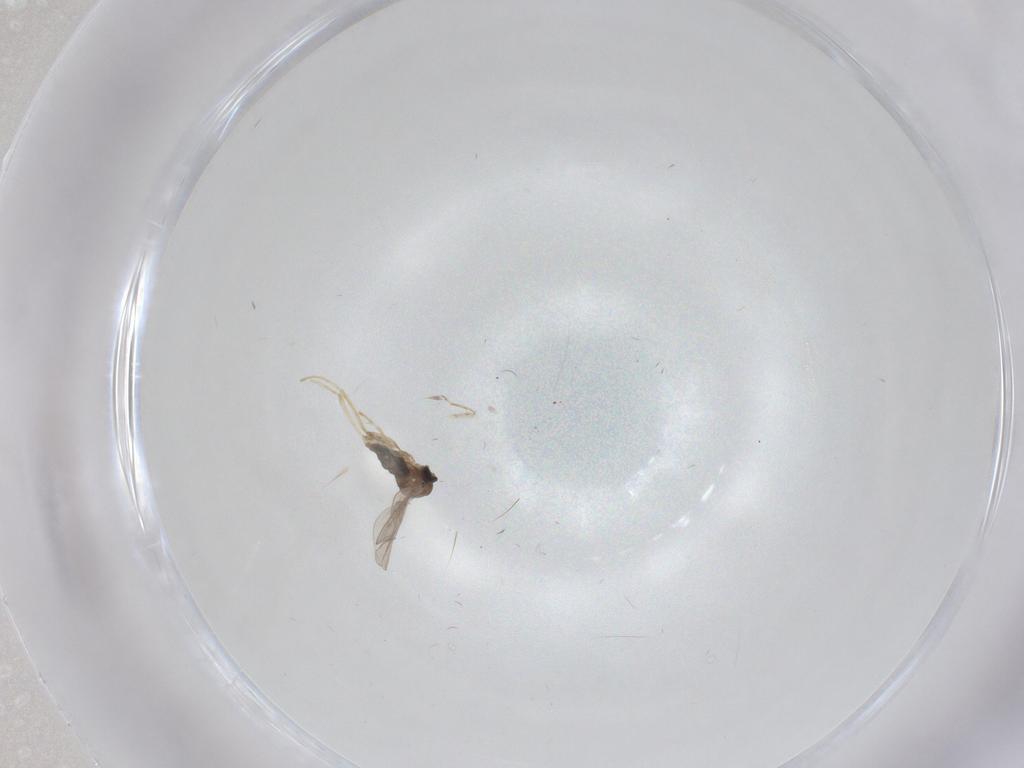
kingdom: Animalia
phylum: Arthropoda
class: Insecta
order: Diptera
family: Cecidomyiidae
